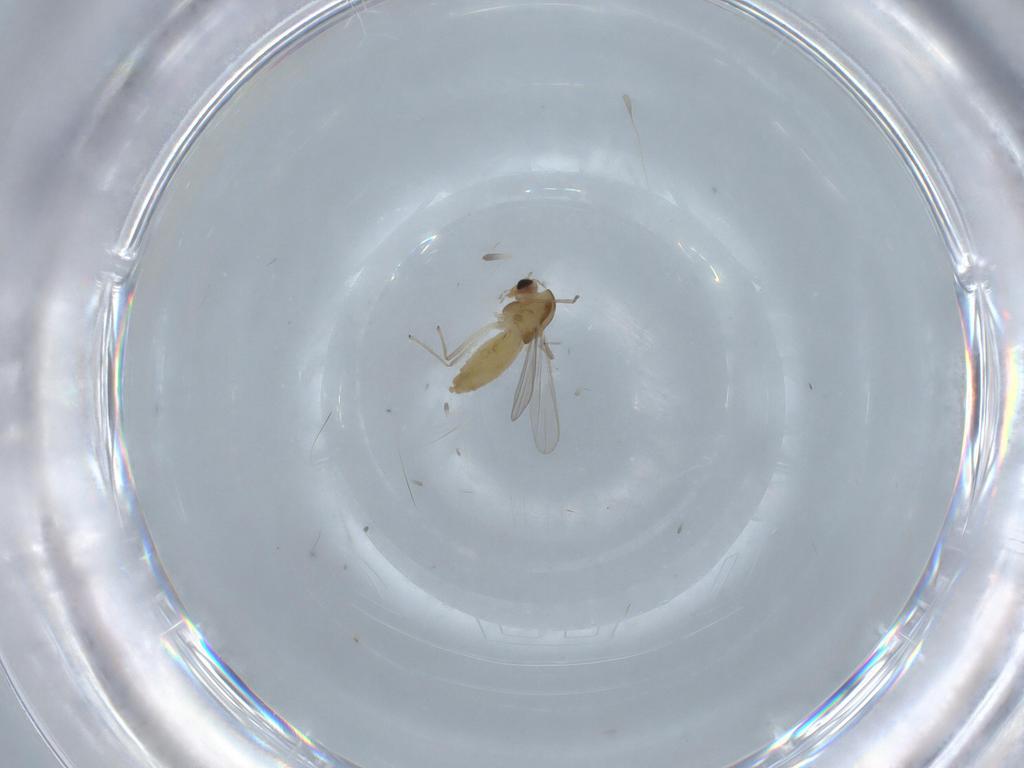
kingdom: Animalia
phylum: Arthropoda
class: Insecta
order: Diptera
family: Chironomidae
